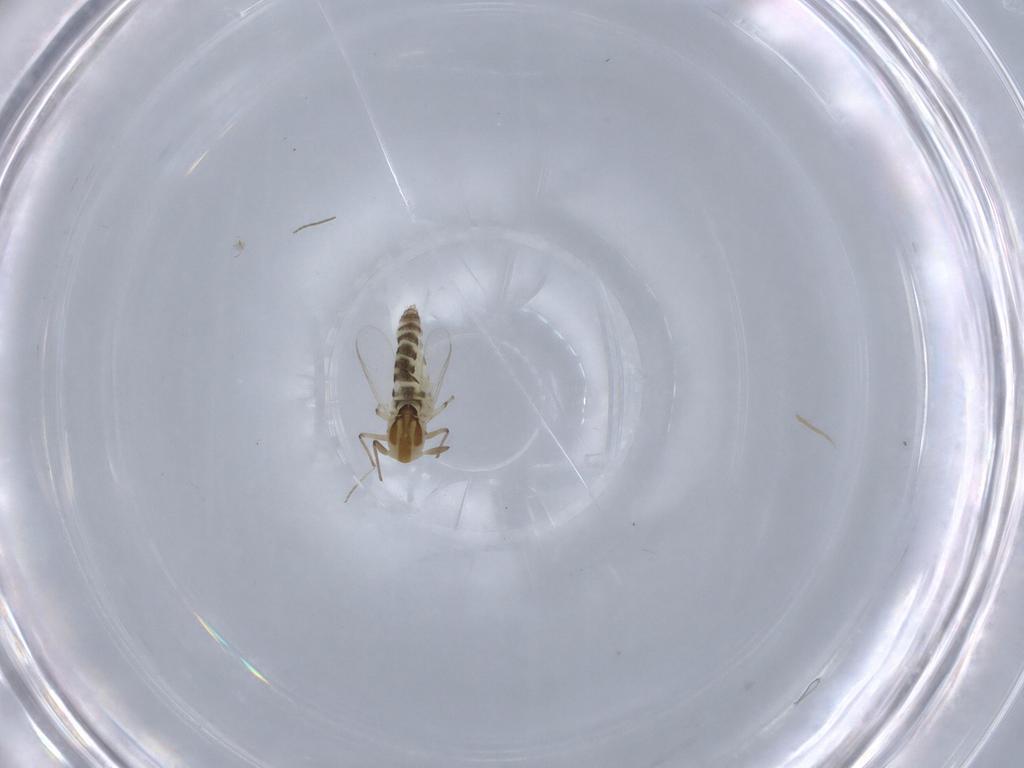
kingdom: Animalia
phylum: Arthropoda
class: Insecta
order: Diptera
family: Chironomidae
